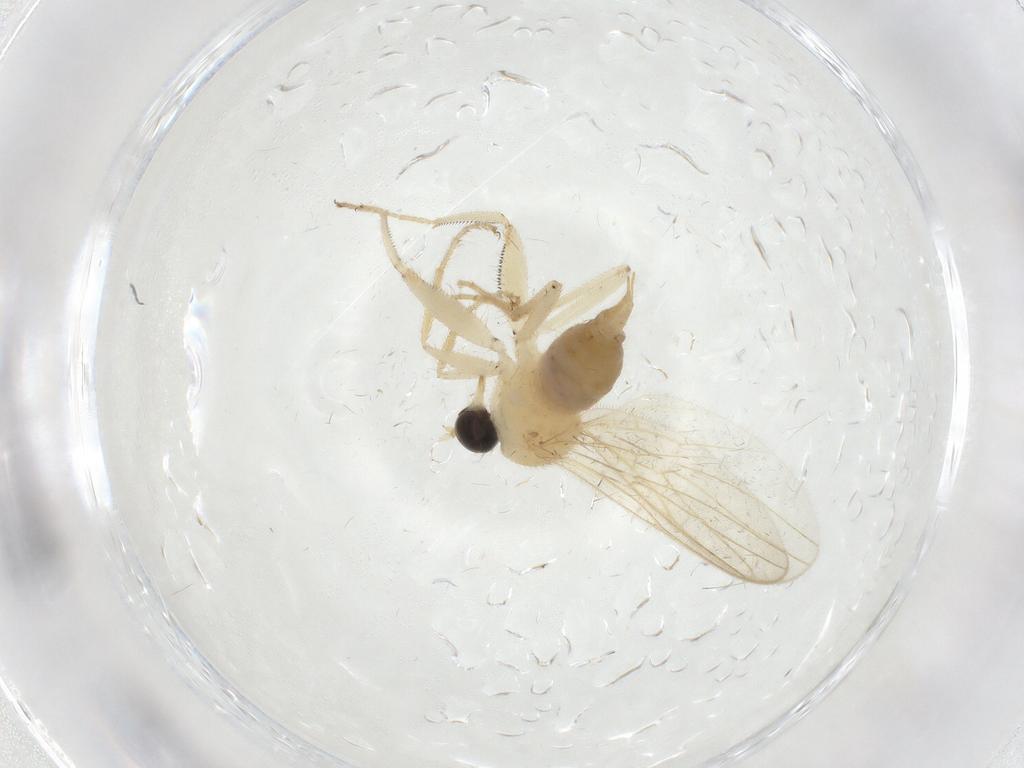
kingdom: Animalia
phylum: Arthropoda
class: Insecta
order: Diptera
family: Hybotidae
